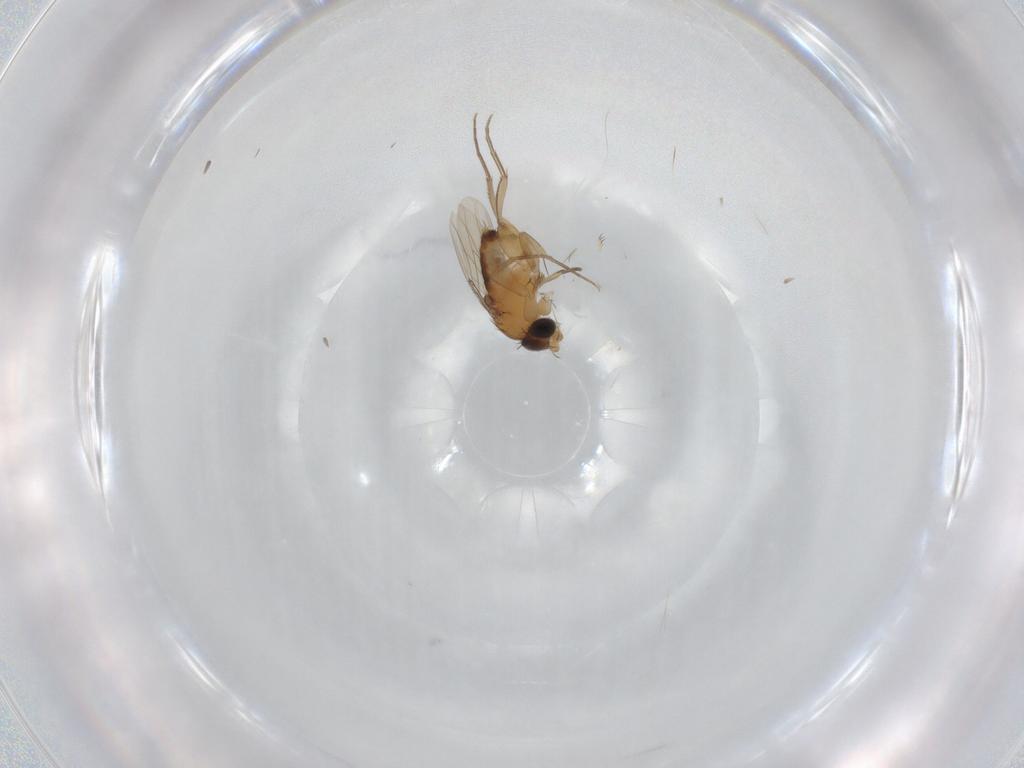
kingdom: Animalia
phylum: Arthropoda
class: Insecta
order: Diptera
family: Phoridae
